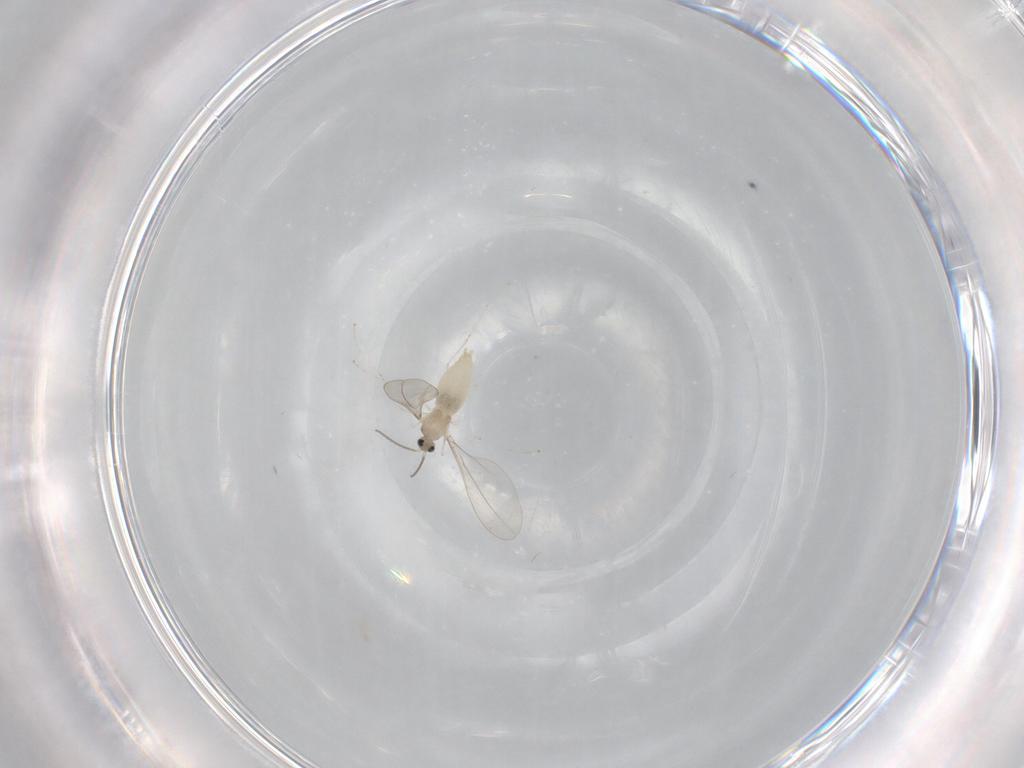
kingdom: Animalia
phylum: Arthropoda
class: Insecta
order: Diptera
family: Cecidomyiidae
